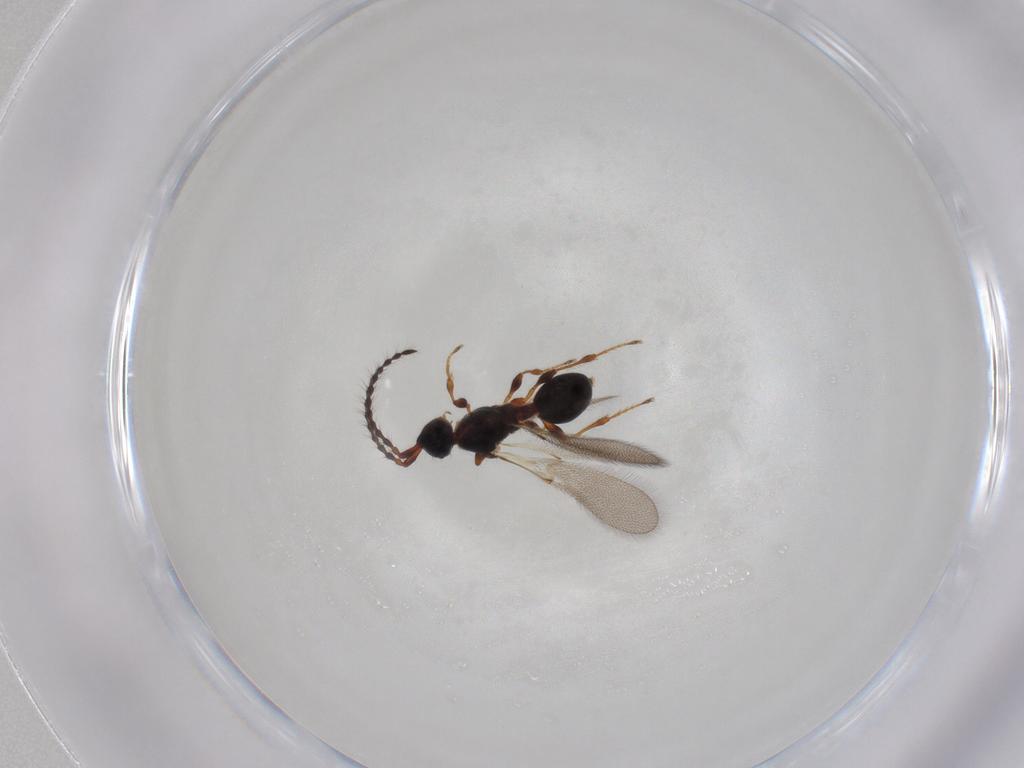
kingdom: Animalia
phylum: Arthropoda
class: Insecta
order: Hymenoptera
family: Diapriidae
